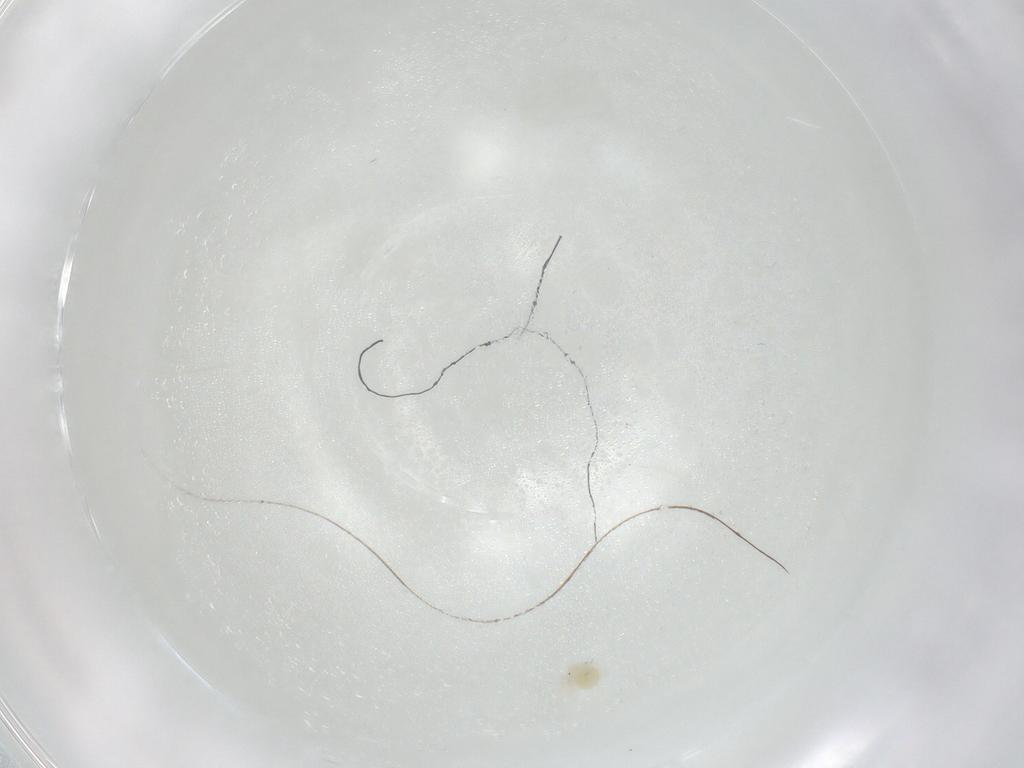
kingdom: Animalia
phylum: Arthropoda
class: Arachnida
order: Trombidiformes
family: Anystidae
